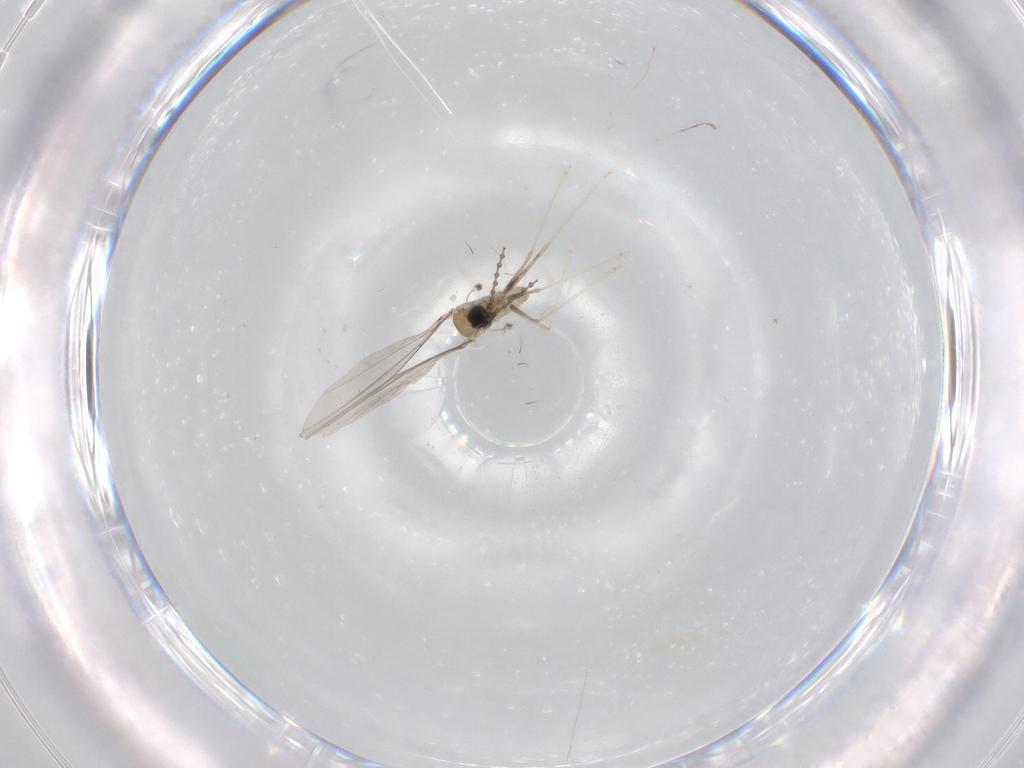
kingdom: Animalia
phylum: Arthropoda
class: Insecta
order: Diptera
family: Cecidomyiidae
